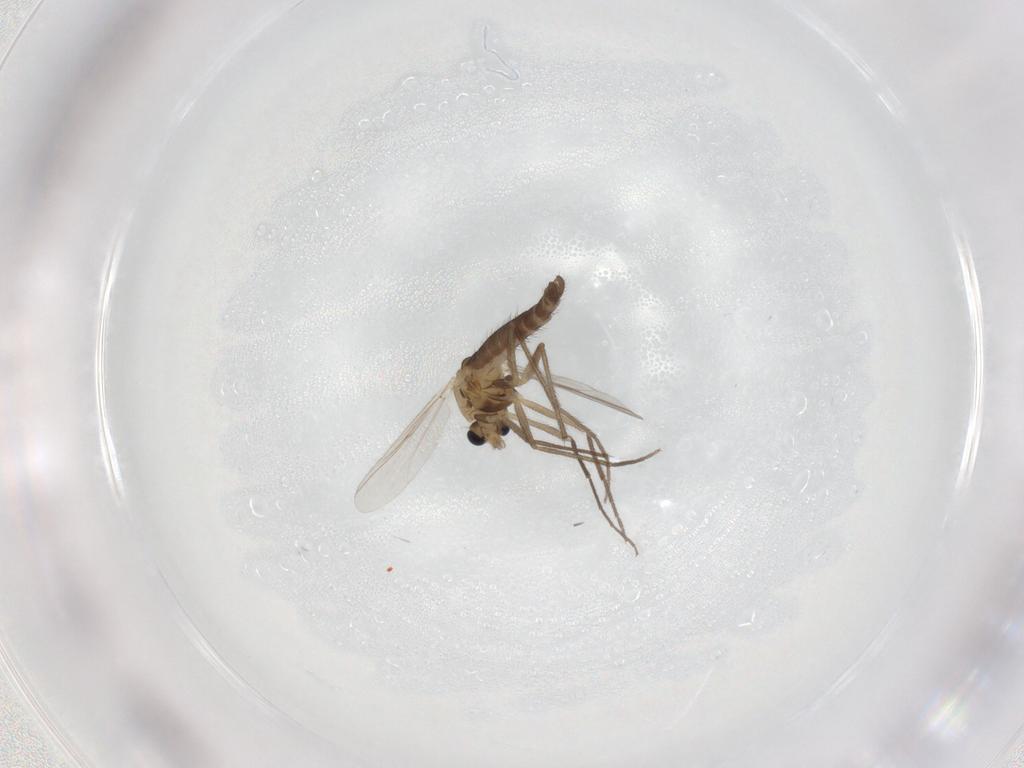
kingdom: Animalia
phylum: Arthropoda
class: Insecta
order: Diptera
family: Chironomidae
